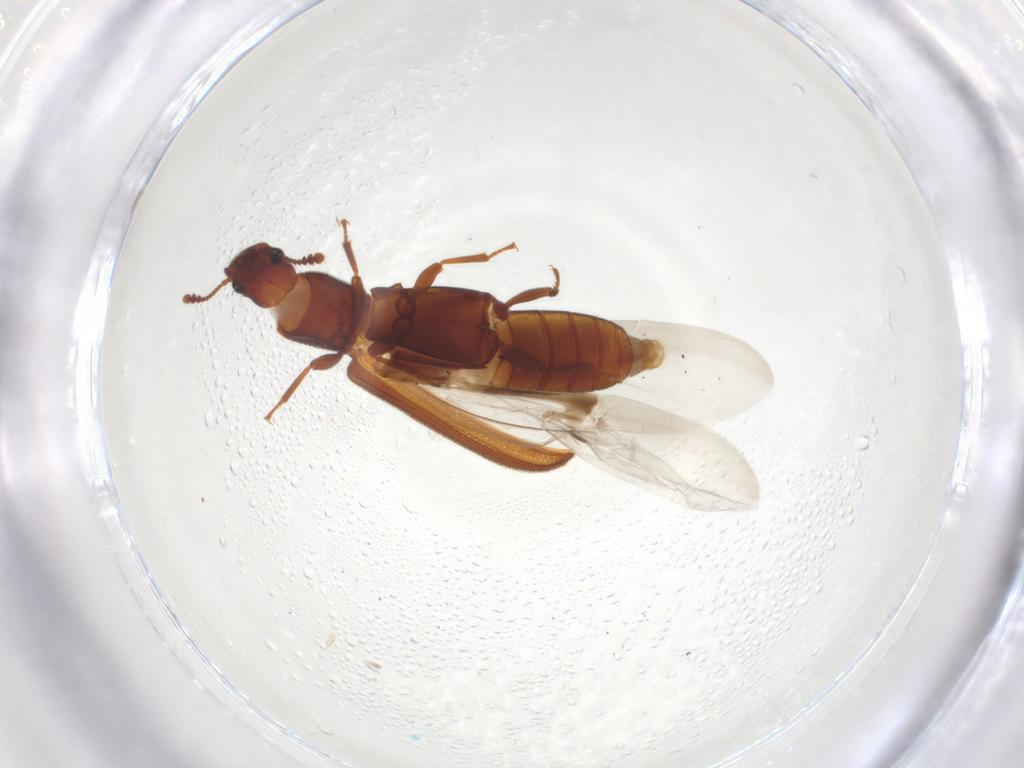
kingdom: Animalia
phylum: Arthropoda
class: Insecta
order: Coleoptera
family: Zopheridae
